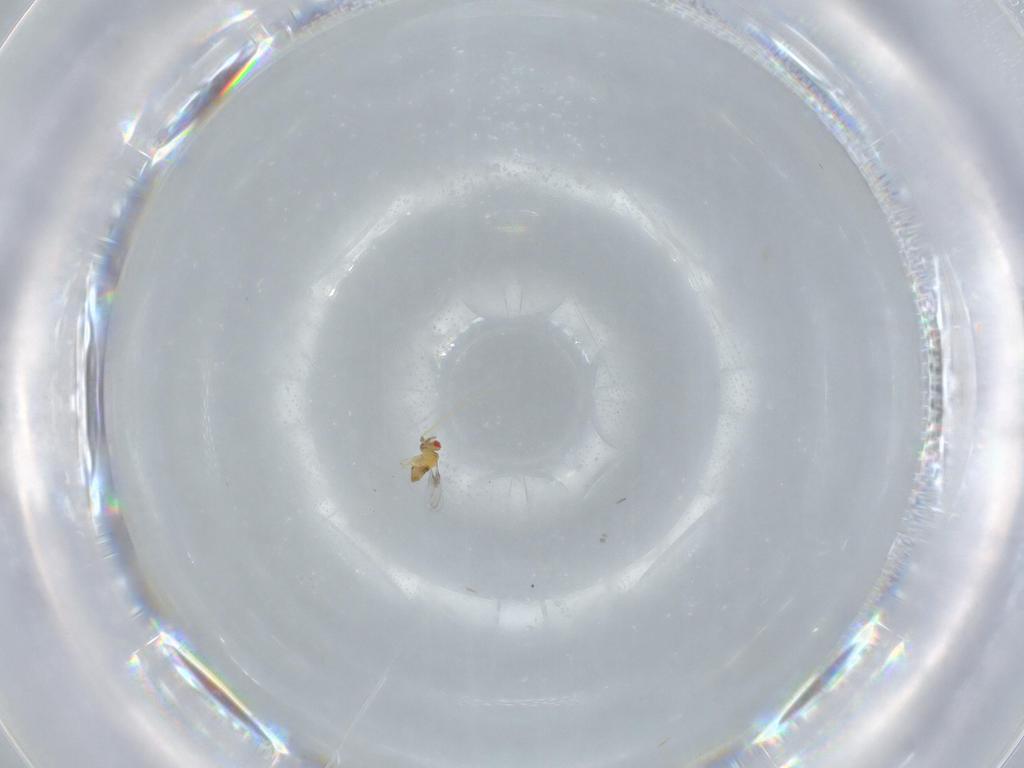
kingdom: Animalia
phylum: Arthropoda
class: Insecta
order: Hymenoptera
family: Trichogrammatidae
